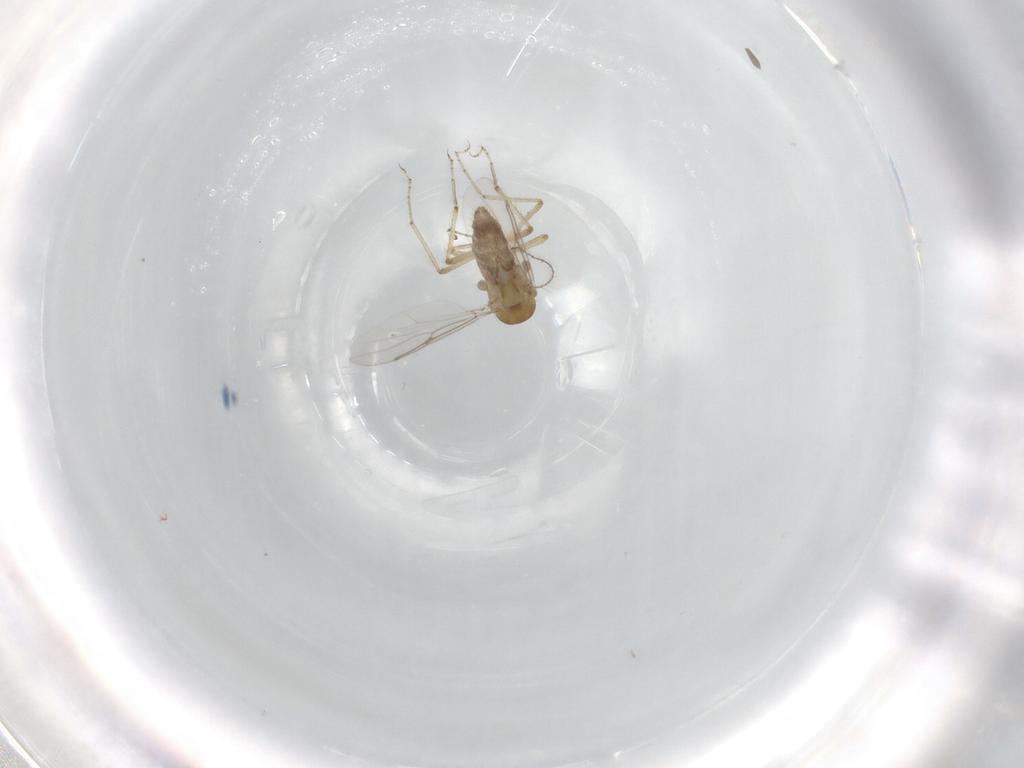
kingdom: Animalia
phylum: Arthropoda
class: Insecta
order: Diptera
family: Ceratopogonidae
